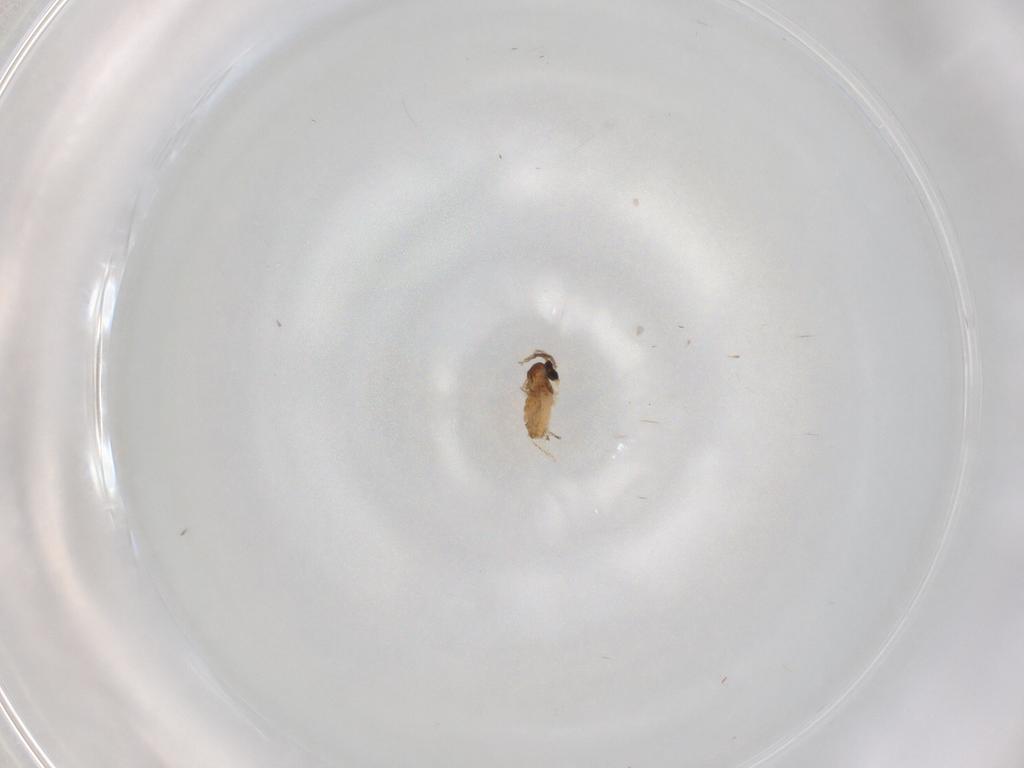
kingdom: Animalia
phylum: Arthropoda
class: Insecta
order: Diptera
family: Cecidomyiidae
